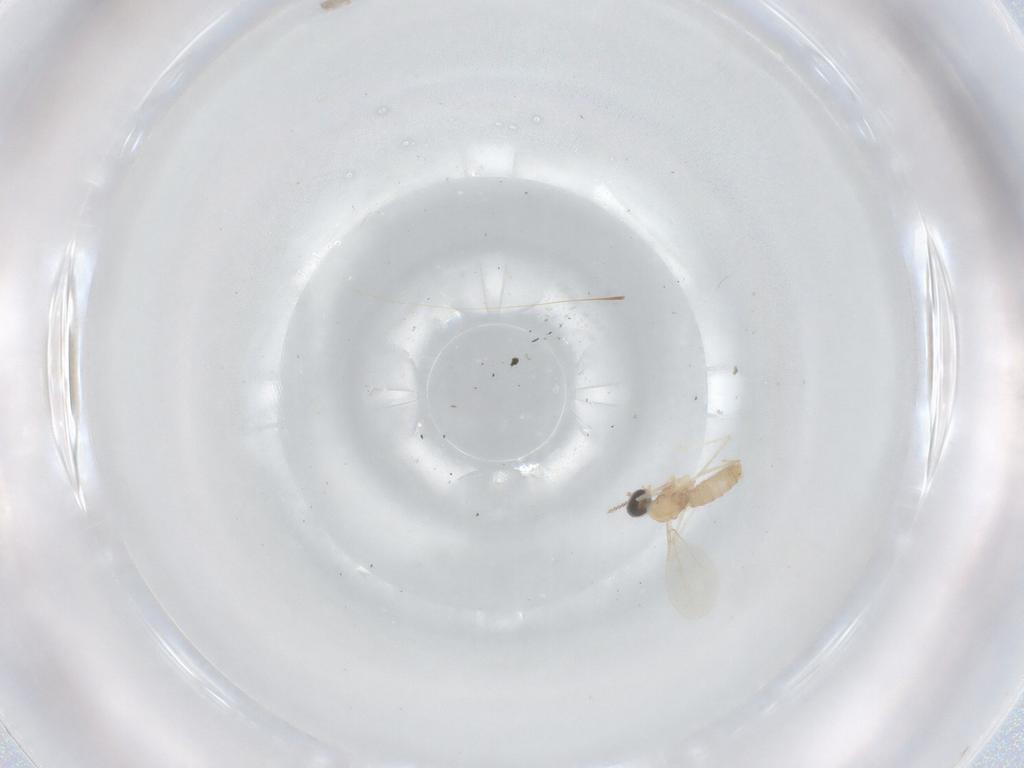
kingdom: Animalia
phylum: Arthropoda
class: Insecta
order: Diptera
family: Ceratopogonidae
